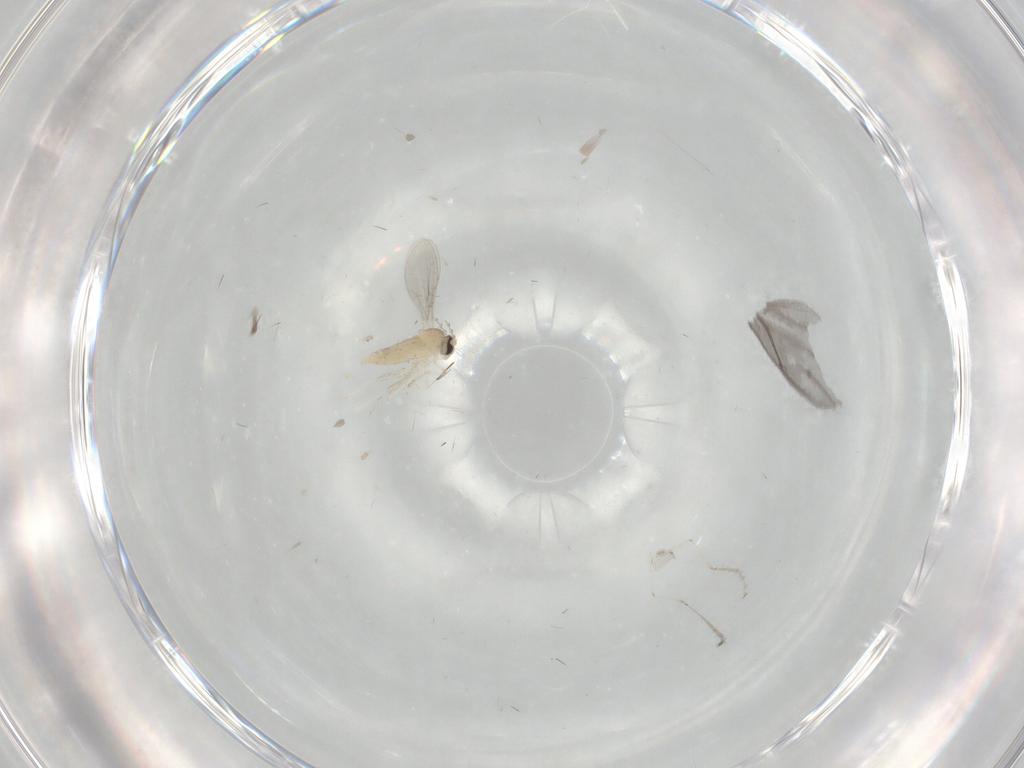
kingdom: Animalia
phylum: Arthropoda
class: Insecta
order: Diptera
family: Cecidomyiidae
